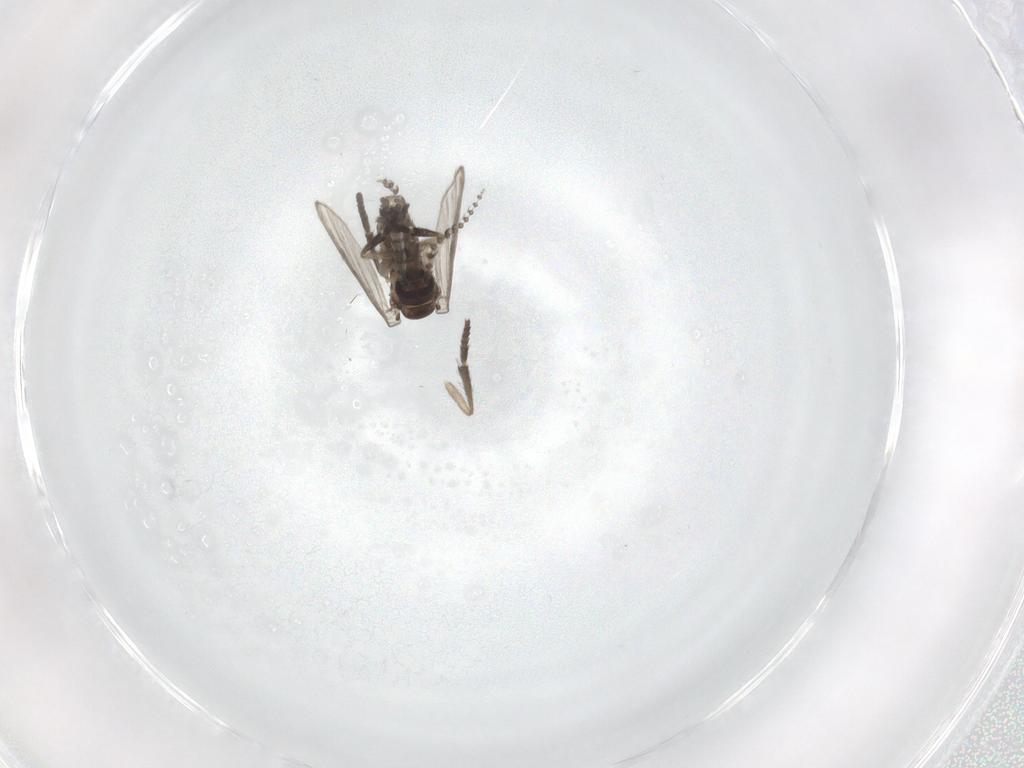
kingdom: Animalia
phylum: Arthropoda
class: Insecta
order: Diptera
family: Psychodidae
